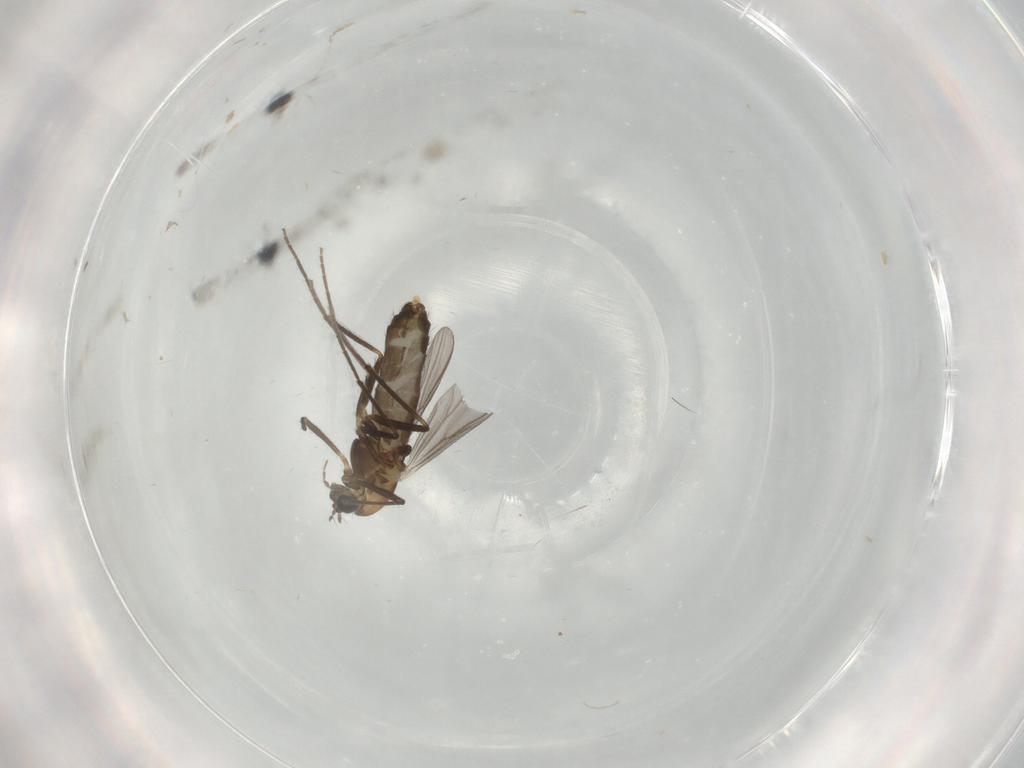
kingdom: Animalia
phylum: Arthropoda
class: Insecta
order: Diptera
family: Chironomidae
